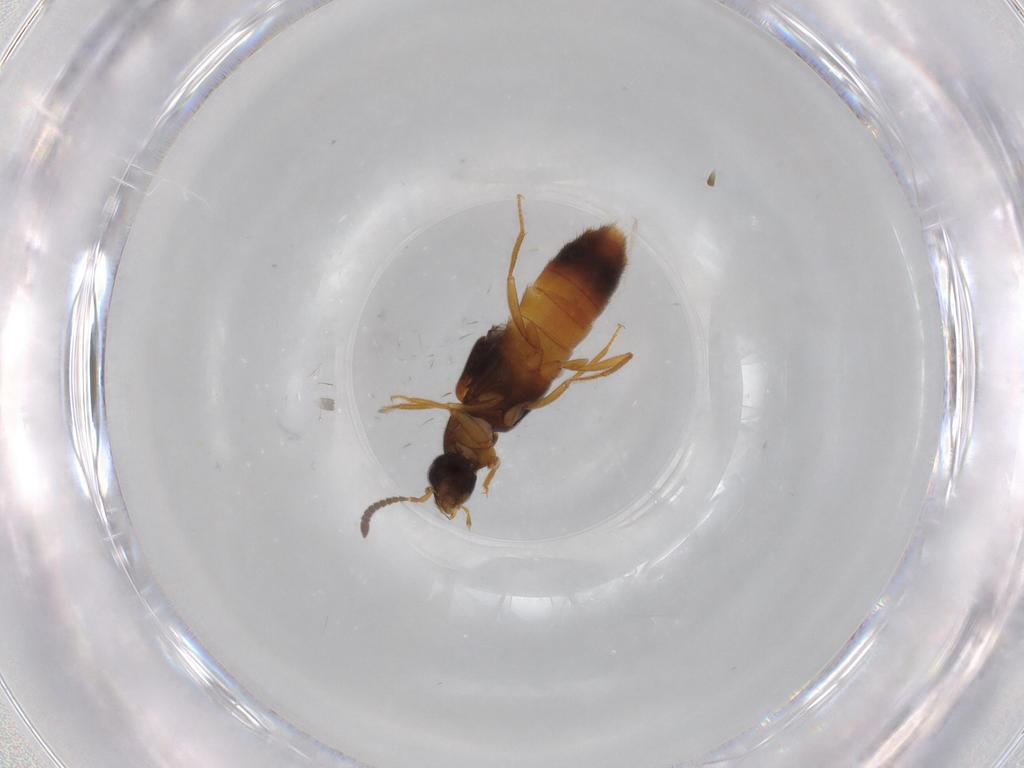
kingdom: Animalia
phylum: Arthropoda
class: Insecta
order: Coleoptera
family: Staphylinidae
